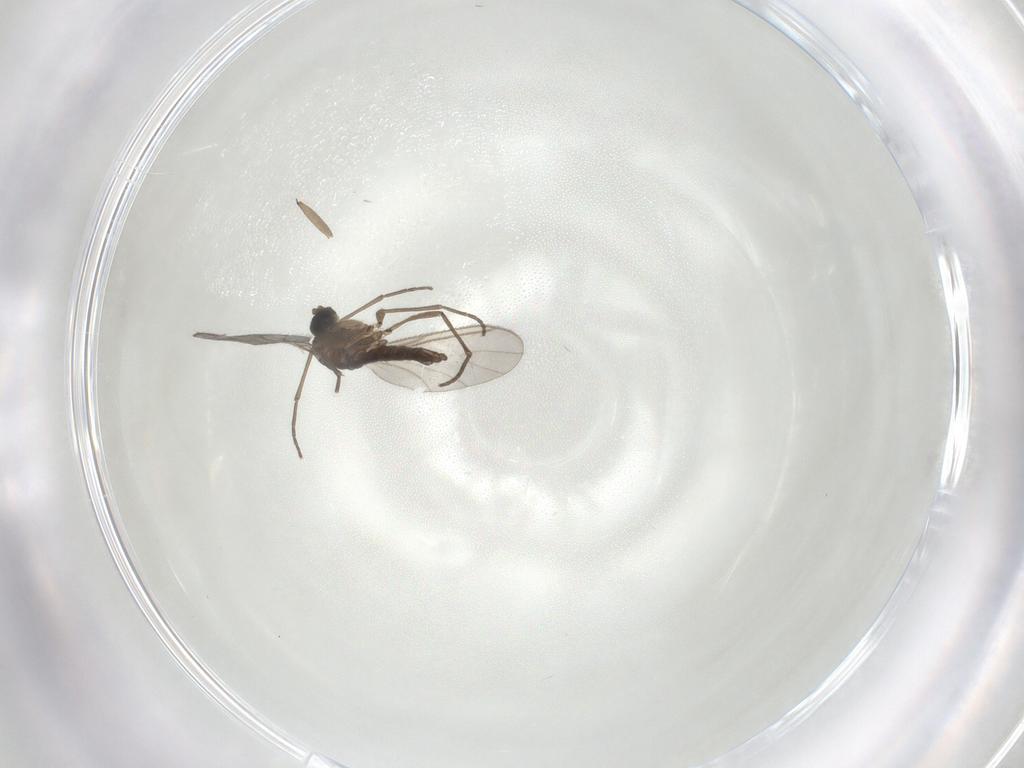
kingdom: Animalia
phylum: Arthropoda
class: Insecta
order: Diptera
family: Sciaridae
